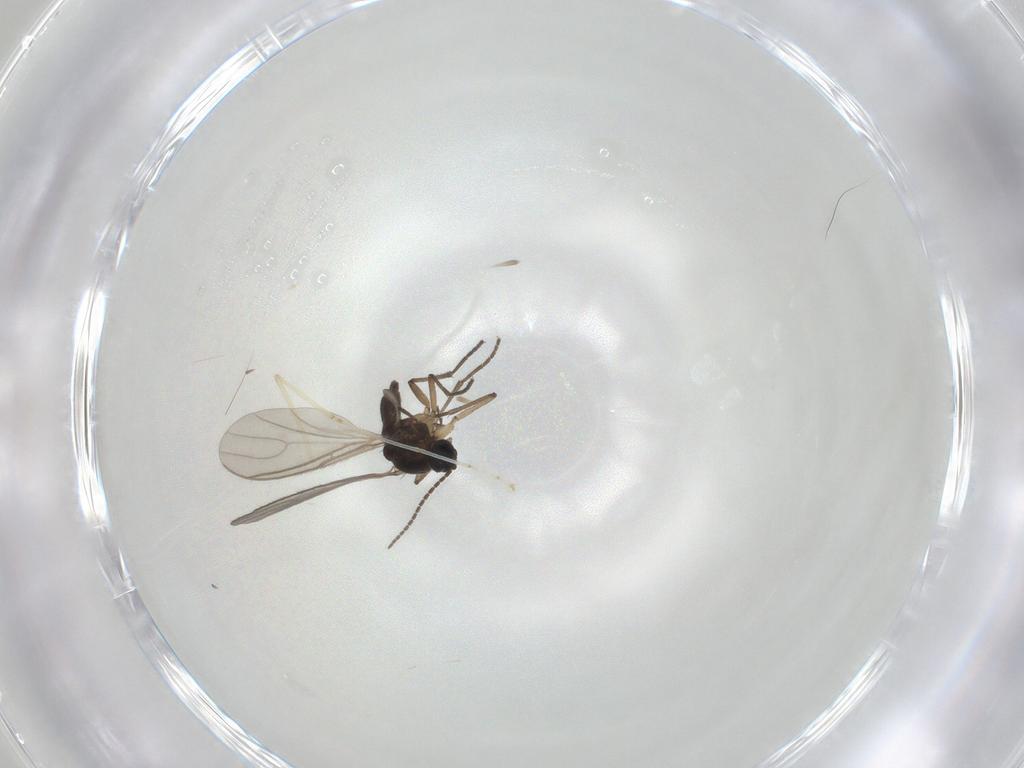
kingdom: Animalia
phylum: Arthropoda
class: Insecta
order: Diptera
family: Sciaridae
